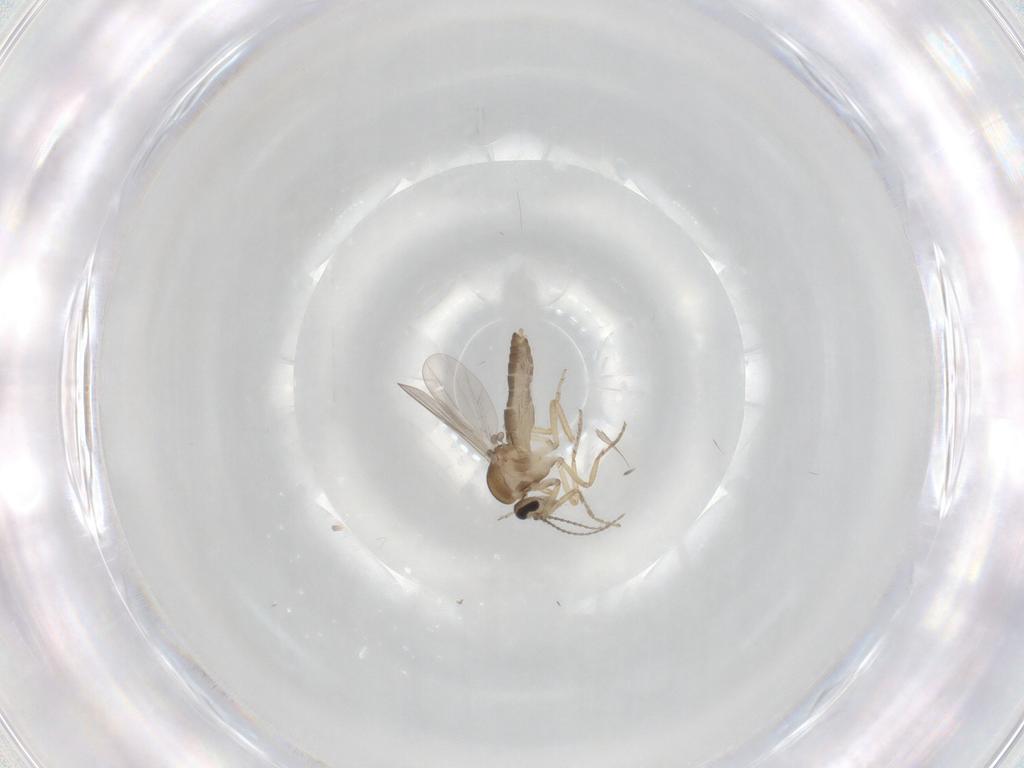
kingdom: Animalia
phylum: Arthropoda
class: Insecta
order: Diptera
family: Ceratopogonidae
